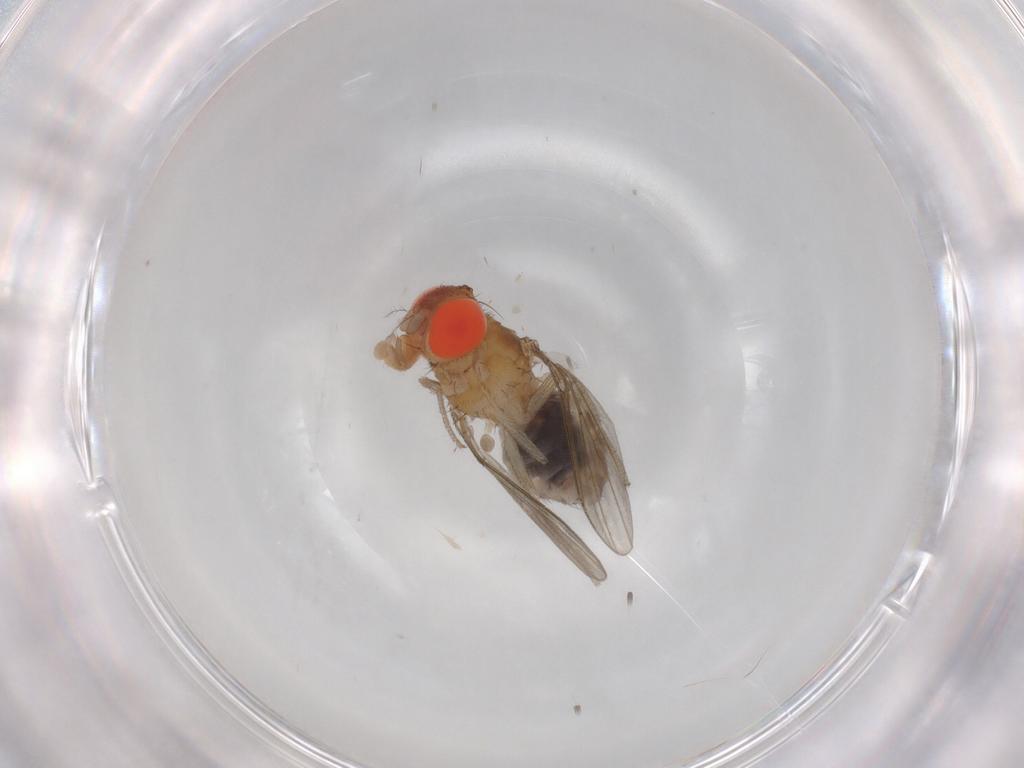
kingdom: Animalia
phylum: Arthropoda
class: Insecta
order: Diptera
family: Drosophilidae
